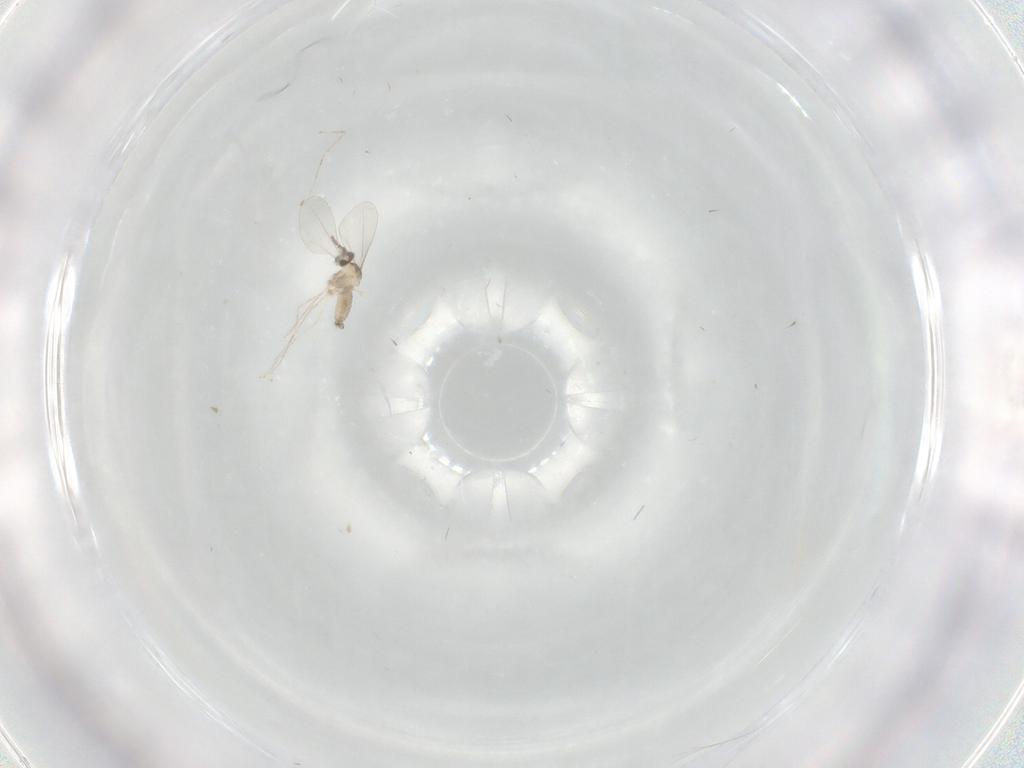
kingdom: Animalia
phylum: Arthropoda
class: Insecta
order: Diptera
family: Cecidomyiidae
